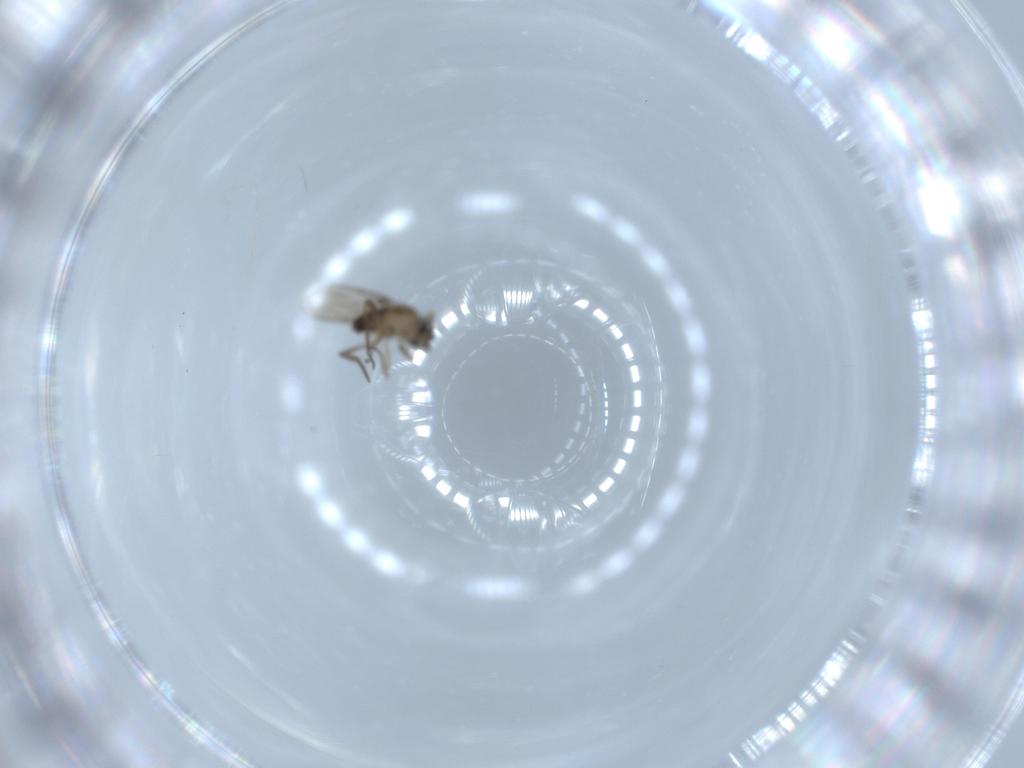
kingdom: Animalia
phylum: Arthropoda
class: Insecta
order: Diptera
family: Phoridae
